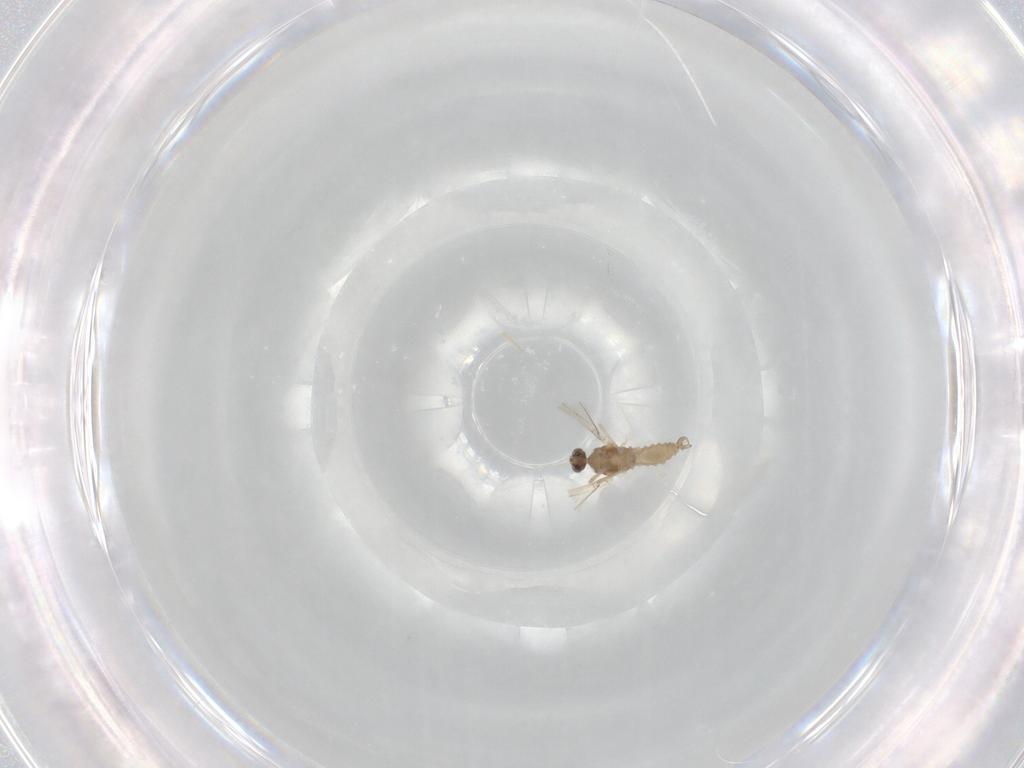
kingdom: Animalia
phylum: Arthropoda
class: Insecta
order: Diptera
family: Cecidomyiidae
